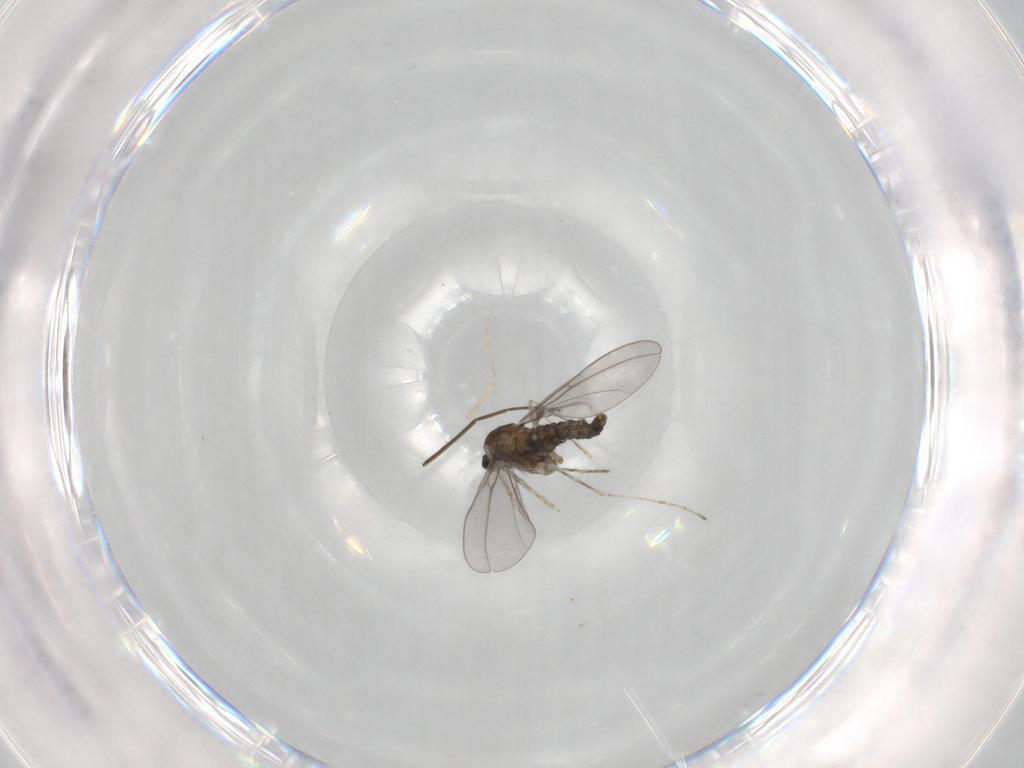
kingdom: Animalia
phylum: Arthropoda
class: Insecta
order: Diptera
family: Chironomidae
